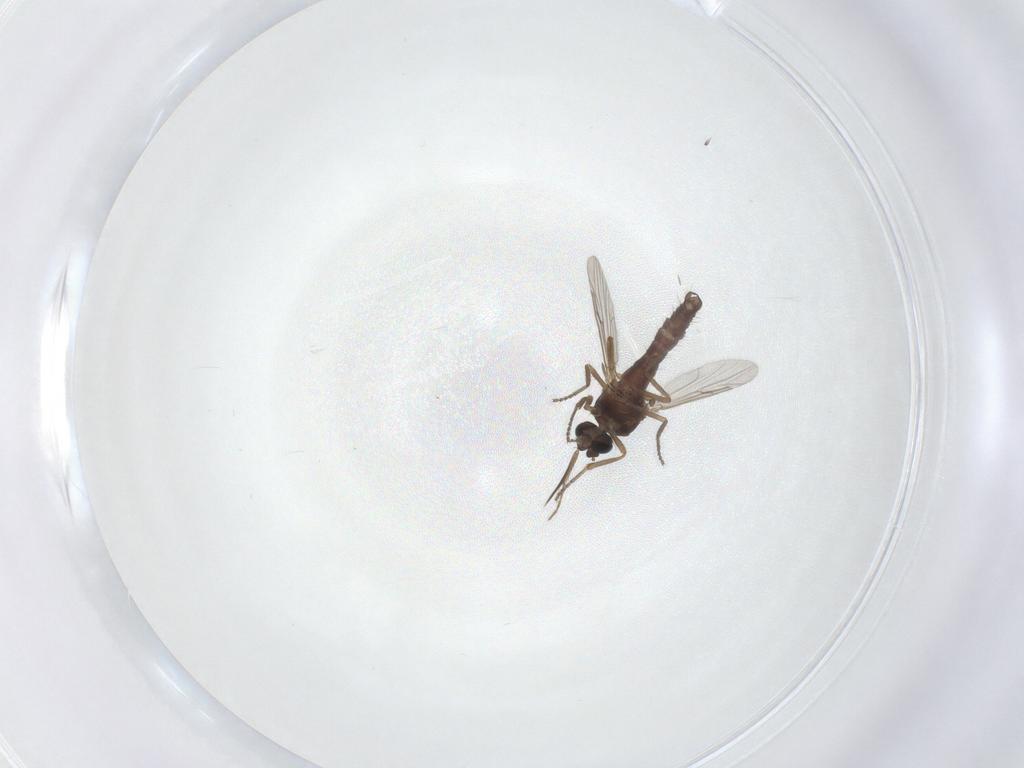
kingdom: Animalia
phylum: Arthropoda
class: Insecta
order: Diptera
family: Ceratopogonidae
